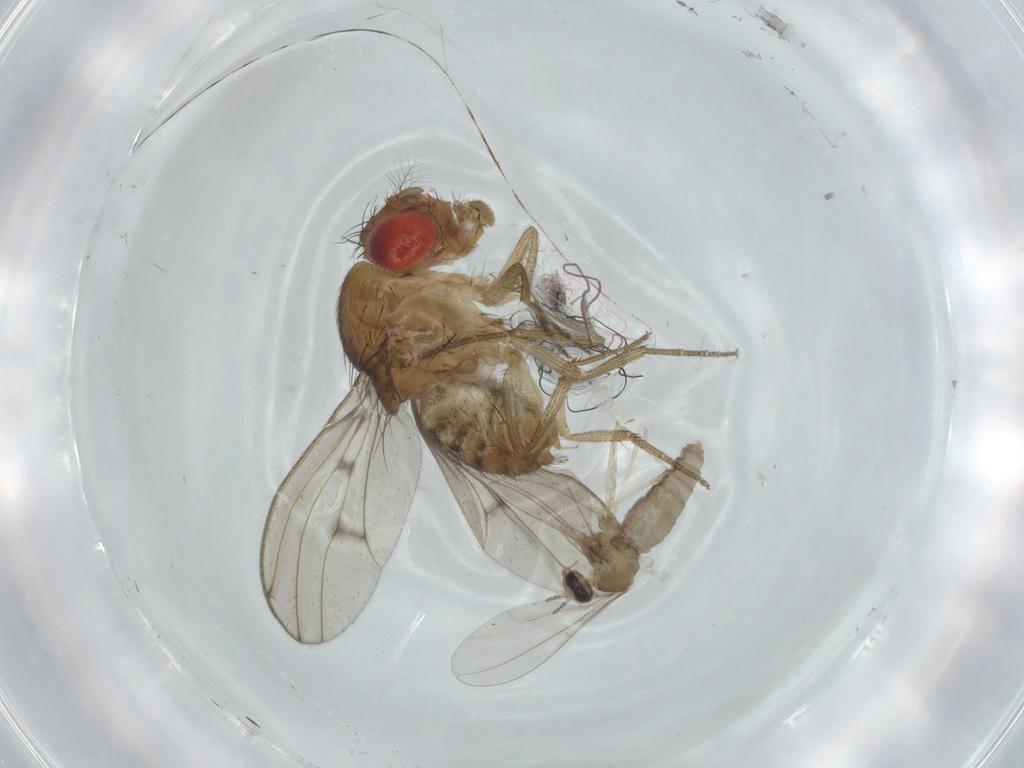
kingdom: Animalia
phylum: Arthropoda
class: Insecta
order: Diptera
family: Drosophilidae
